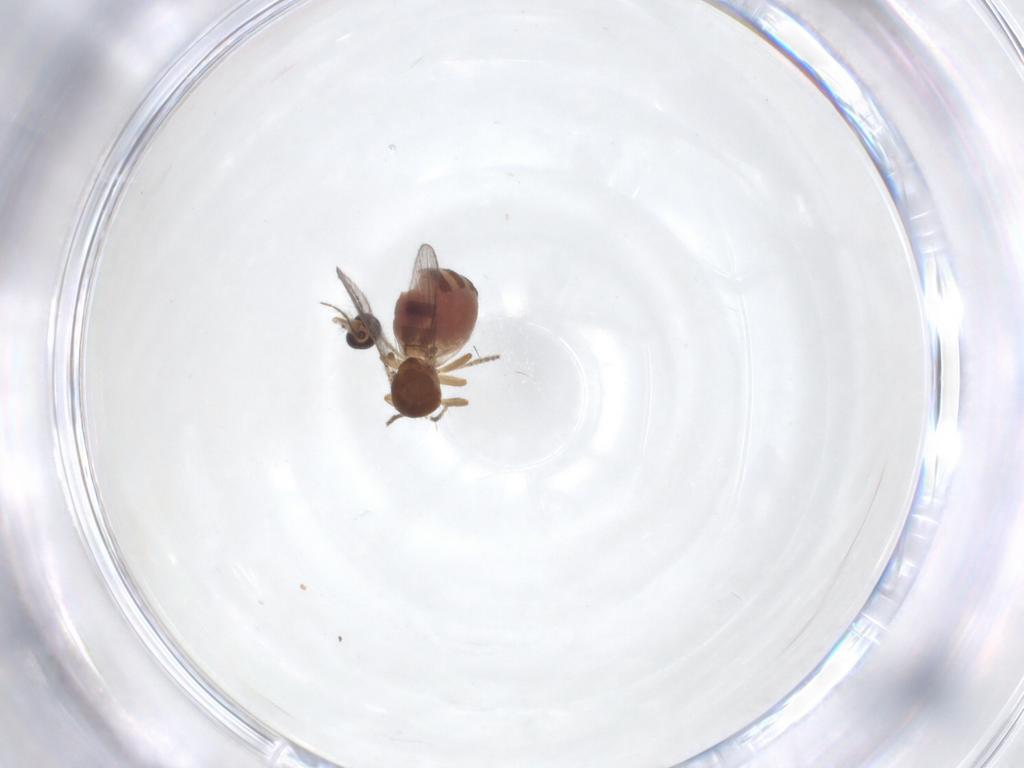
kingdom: Animalia
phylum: Arthropoda
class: Insecta
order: Diptera
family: Ceratopogonidae
